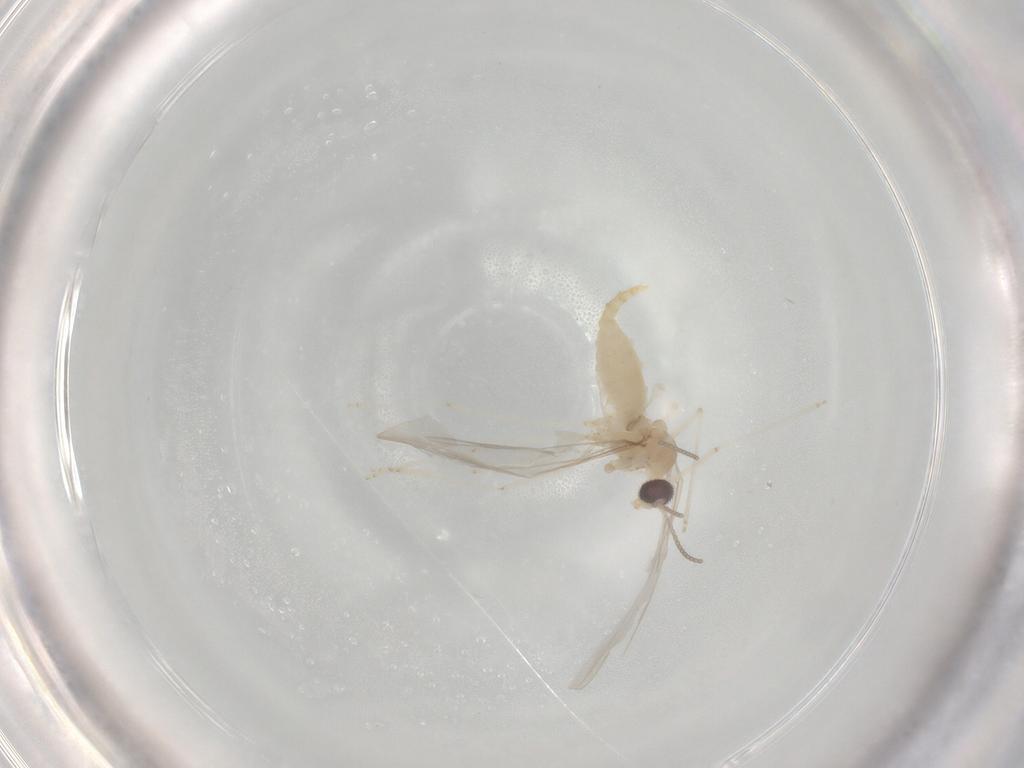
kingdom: Animalia
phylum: Arthropoda
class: Insecta
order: Diptera
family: Cecidomyiidae
